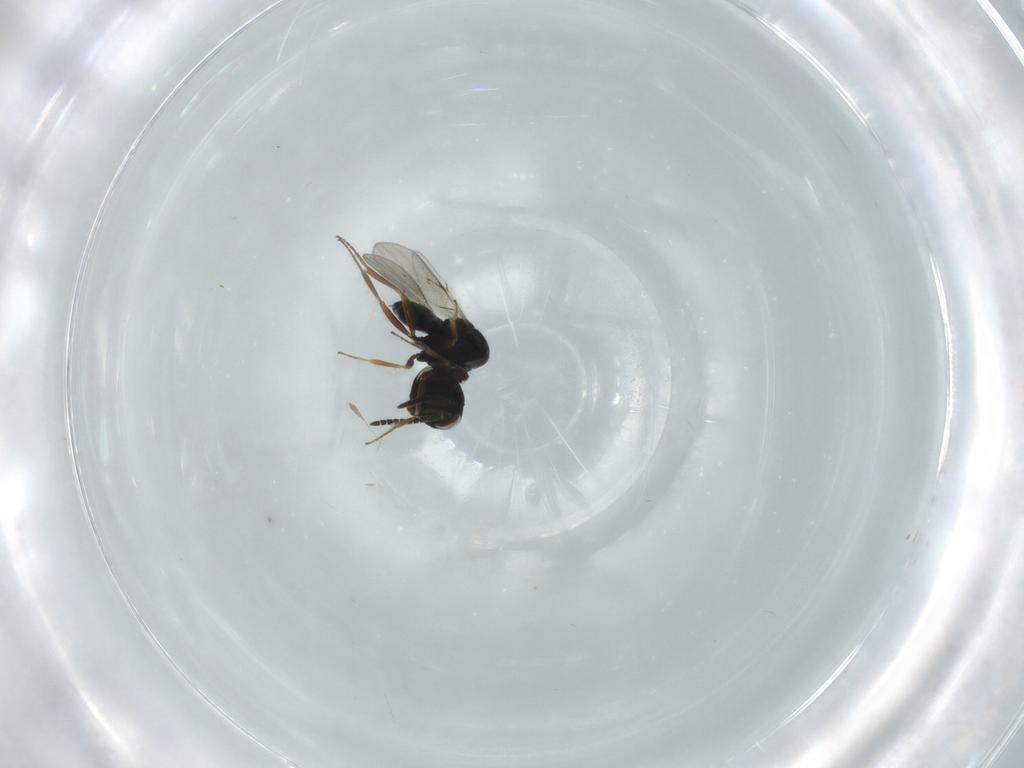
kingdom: Animalia
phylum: Arthropoda
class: Insecta
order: Hymenoptera
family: Scelionidae
